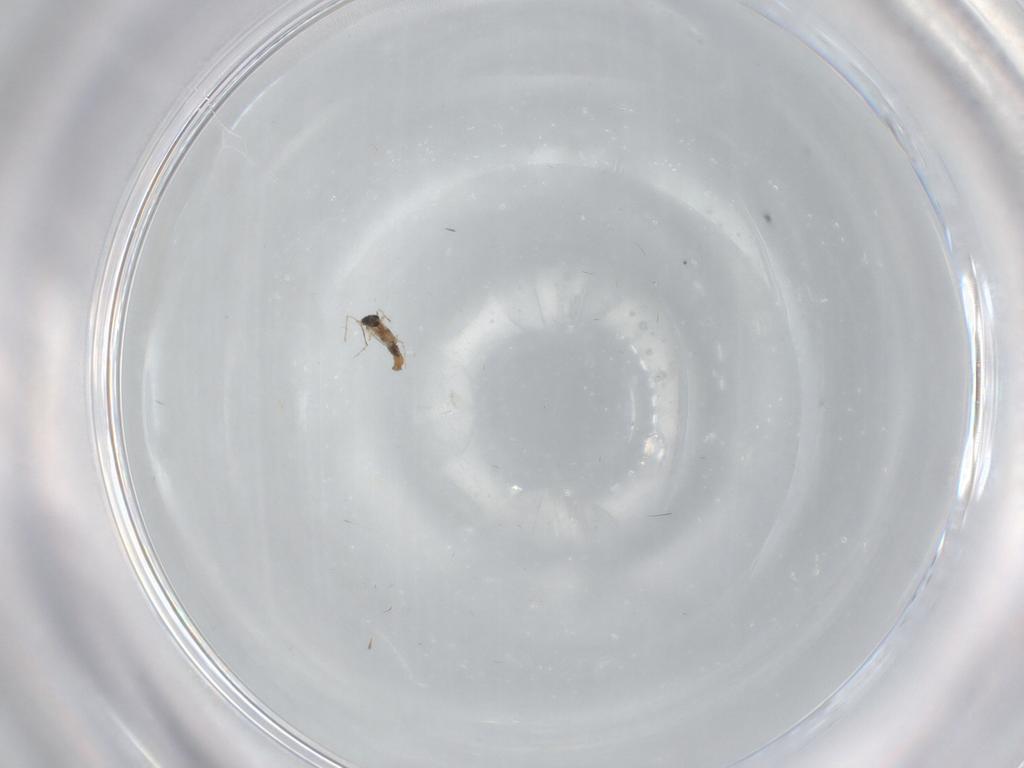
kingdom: Animalia
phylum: Arthropoda
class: Insecta
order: Diptera
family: Cecidomyiidae
